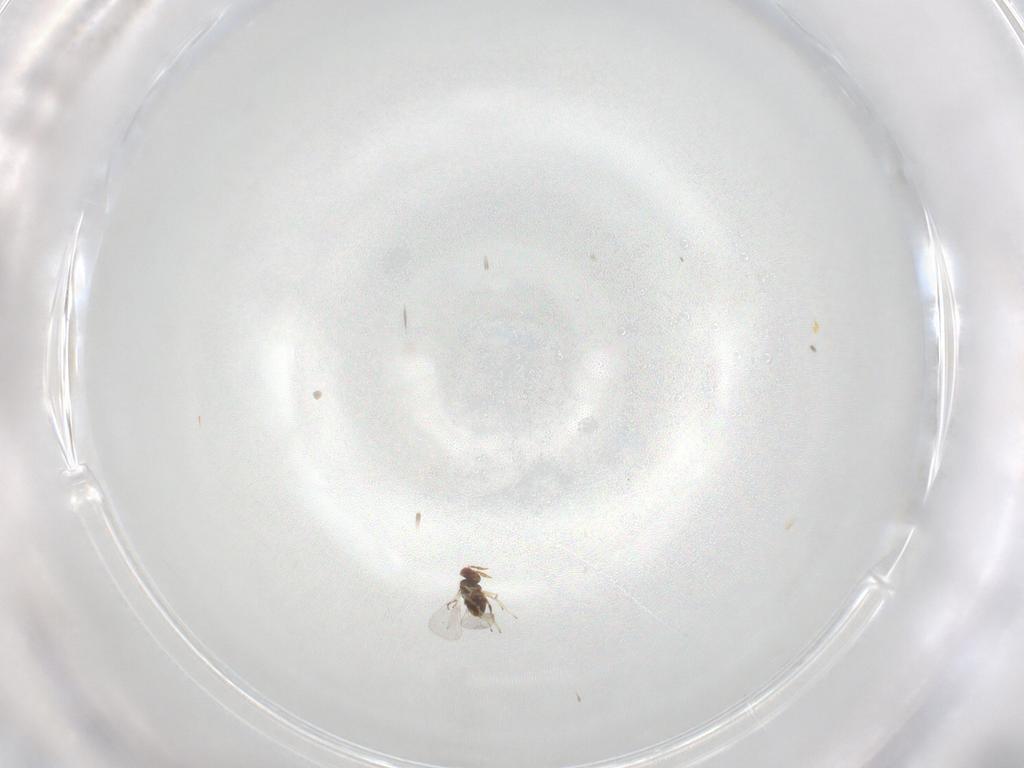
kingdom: Animalia
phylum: Arthropoda
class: Insecta
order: Hymenoptera
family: Trichogrammatidae
